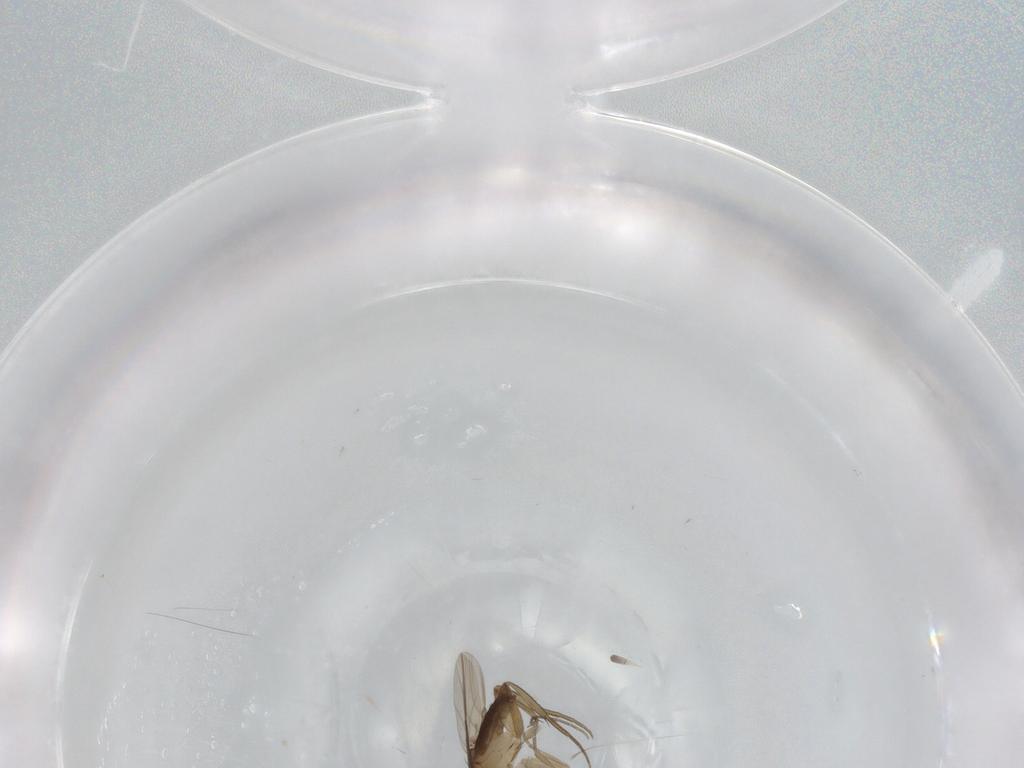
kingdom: Animalia
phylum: Arthropoda
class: Insecta
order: Diptera
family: Phoridae
